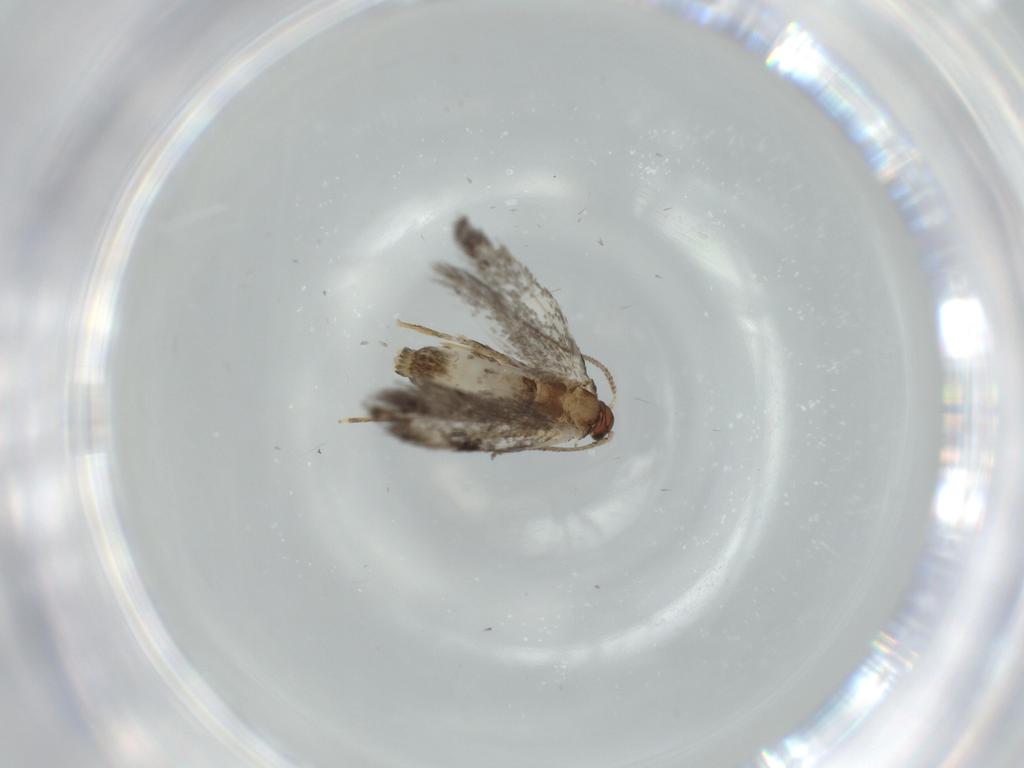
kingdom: Animalia
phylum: Arthropoda
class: Insecta
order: Lepidoptera
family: Tineidae
